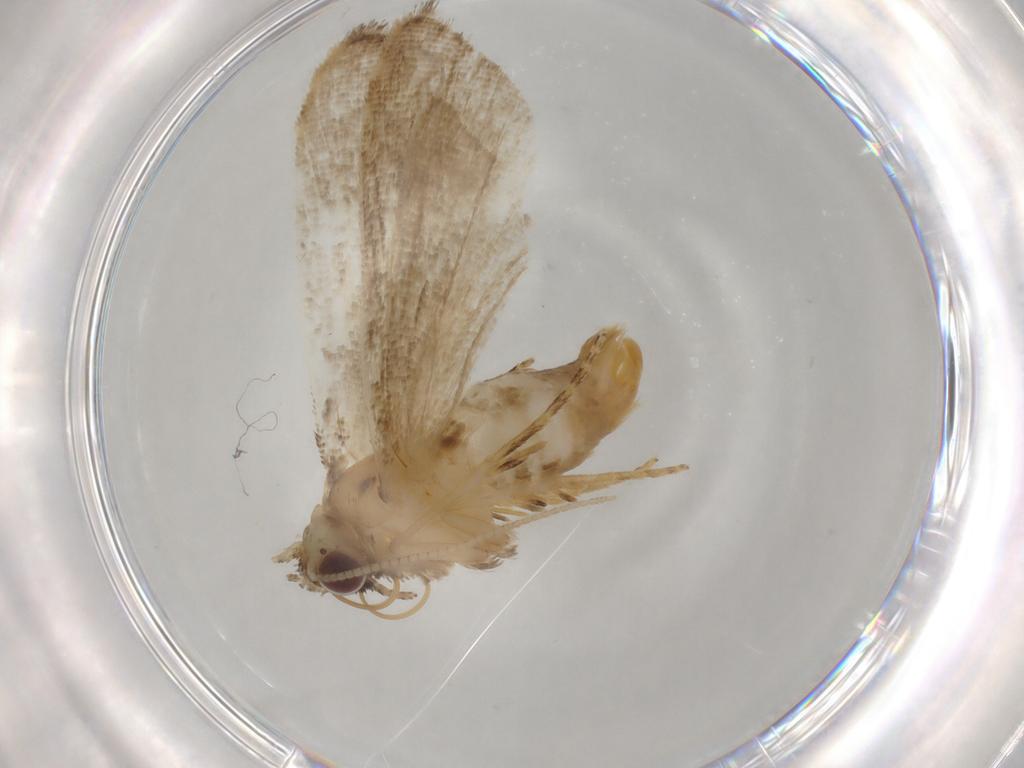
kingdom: Animalia
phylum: Arthropoda
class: Insecta
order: Lepidoptera
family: Erebidae
